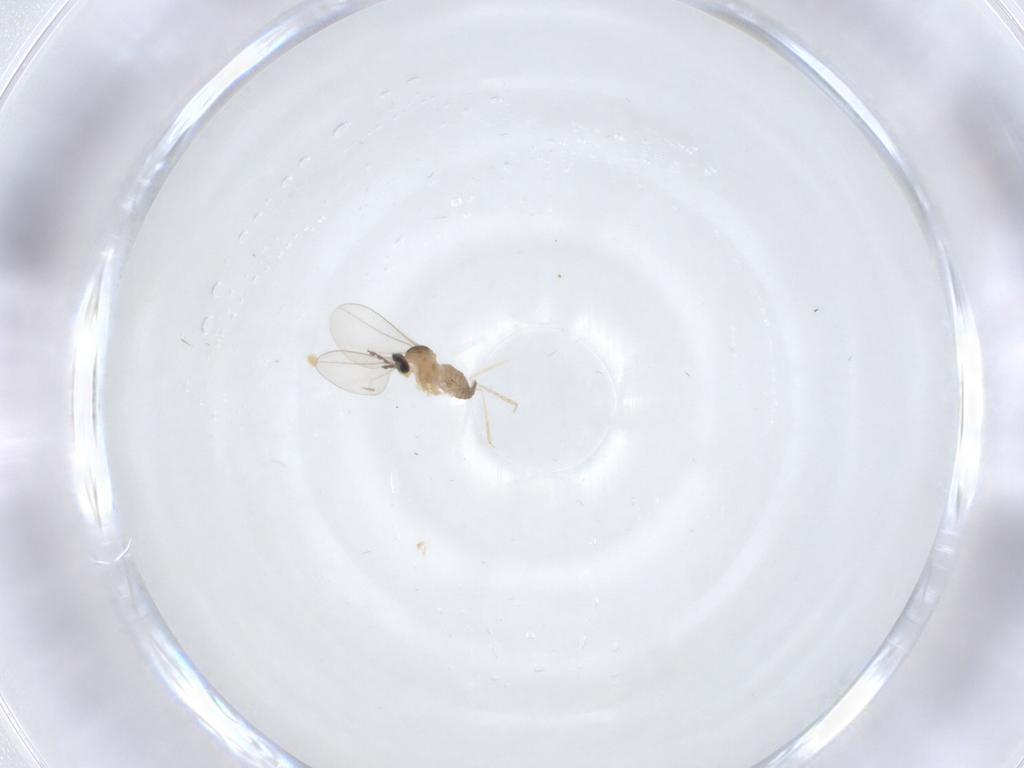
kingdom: Animalia
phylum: Arthropoda
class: Insecta
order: Diptera
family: Cecidomyiidae
